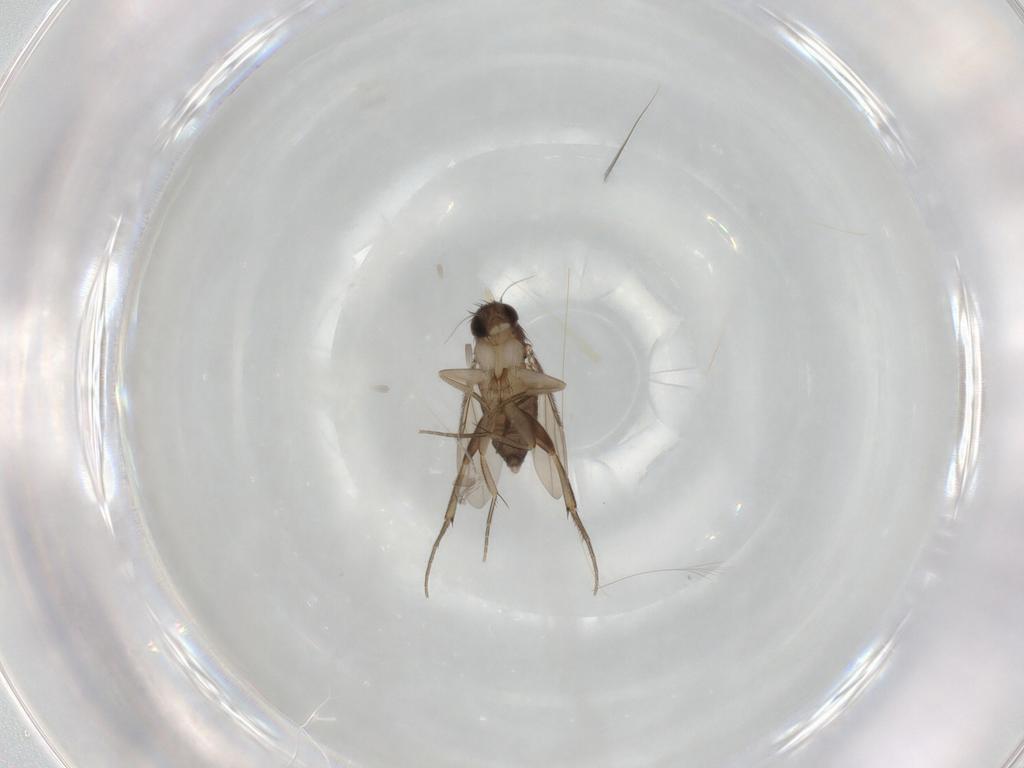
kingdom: Animalia
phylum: Arthropoda
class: Insecta
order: Diptera
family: Phoridae
